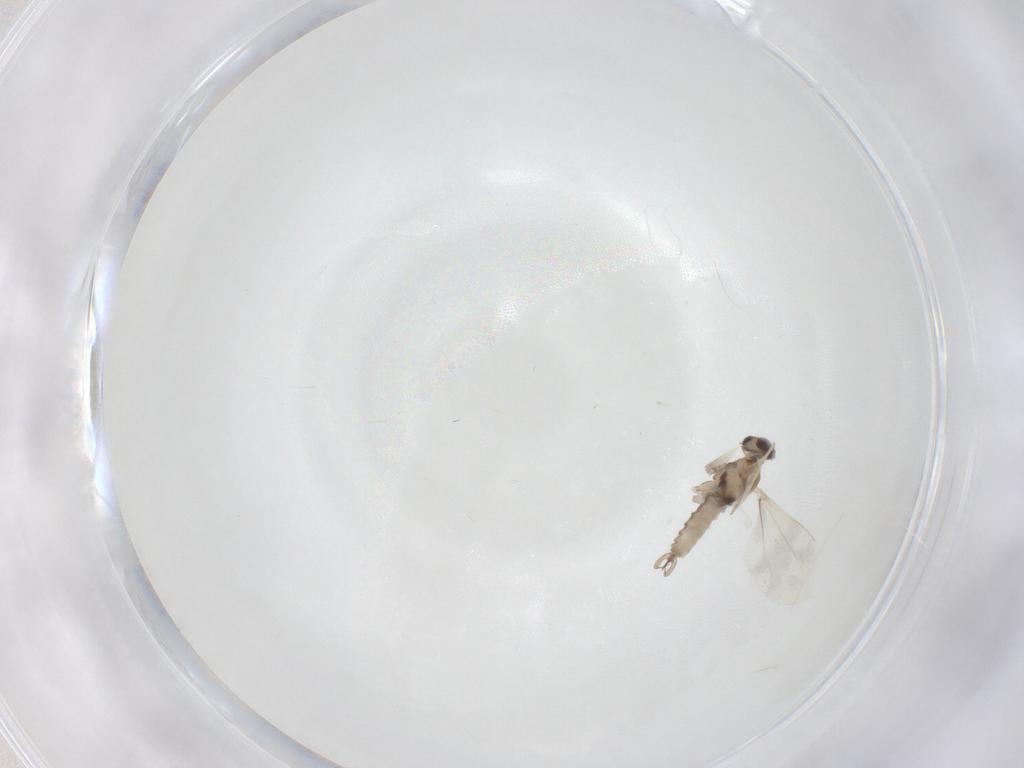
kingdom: Animalia
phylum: Arthropoda
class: Insecta
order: Diptera
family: Cecidomyiidae
